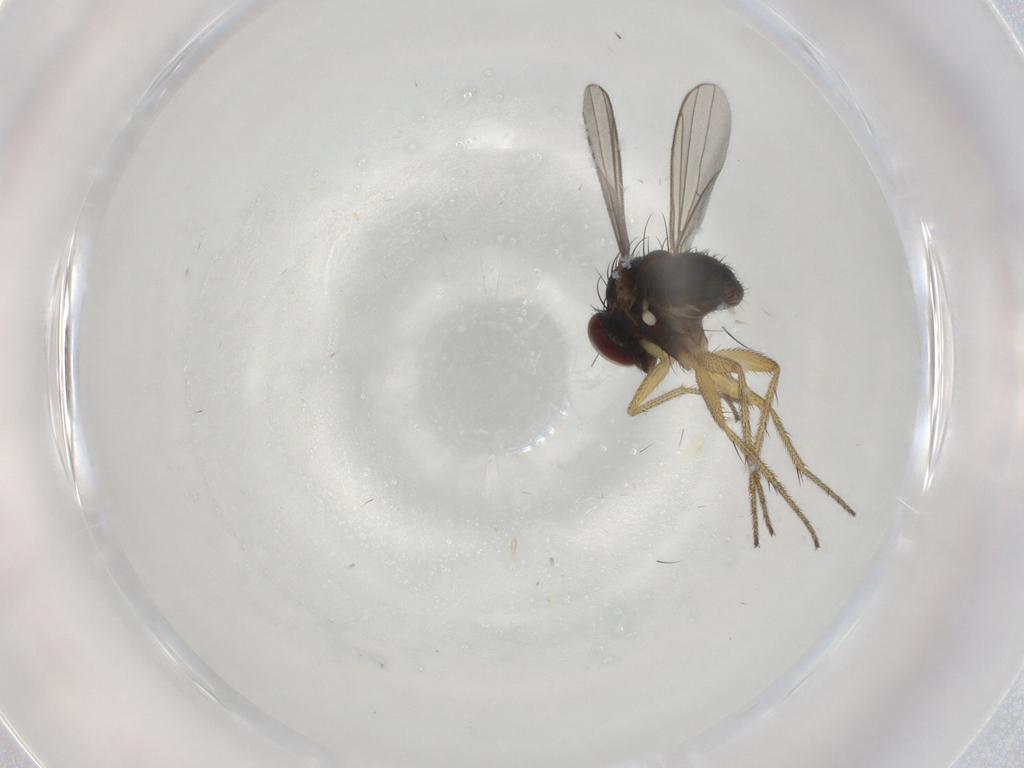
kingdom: Animalia
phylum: Arthropoda
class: Insecta
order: Diptera
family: Dolichopodidae
